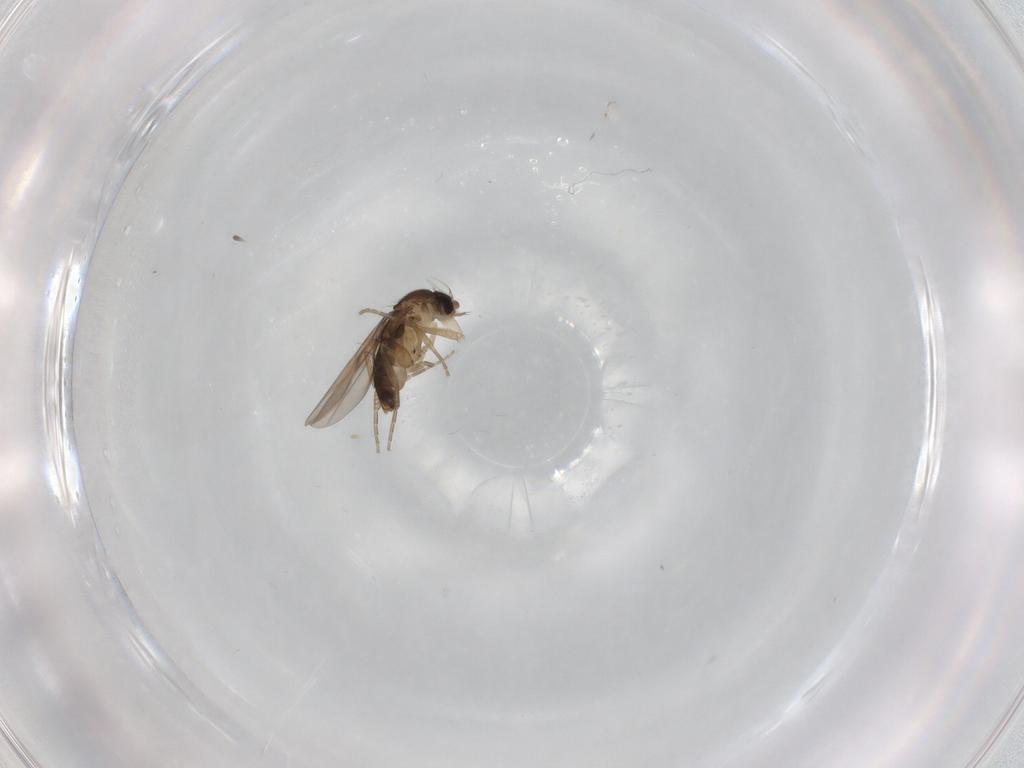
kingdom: Animalia
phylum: Arthropoda
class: Insecta
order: Diptera
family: Phoridae
